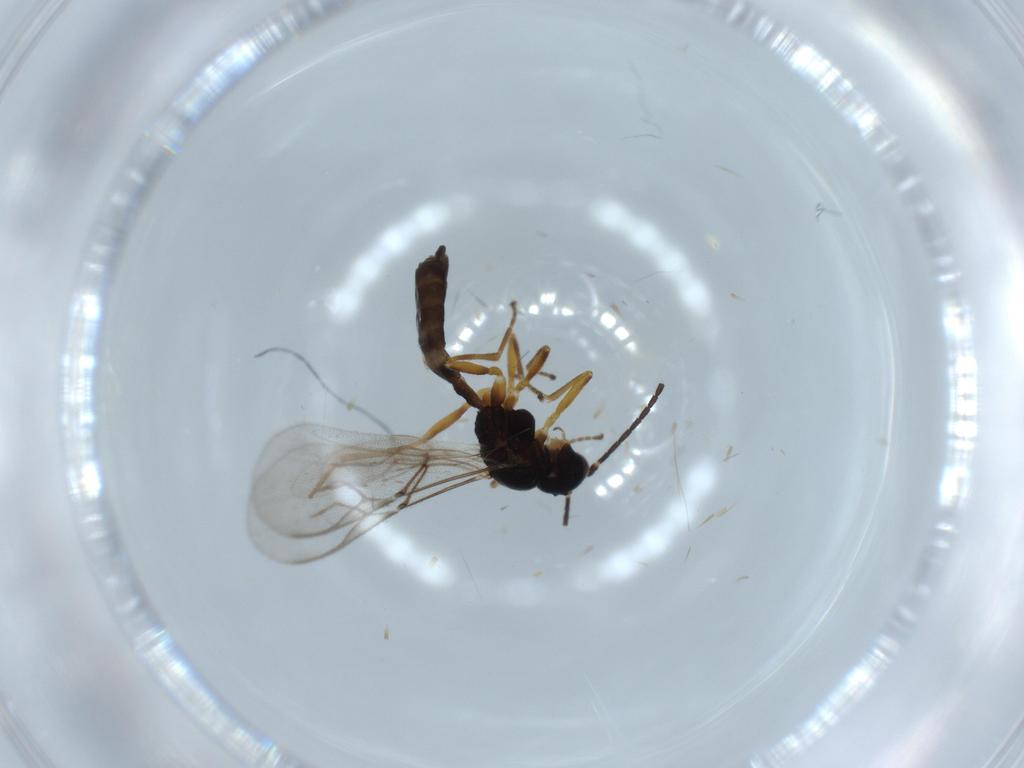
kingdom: Animalia
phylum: Arthropoda
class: Insecta
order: Hymenoptera
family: Braconidae
